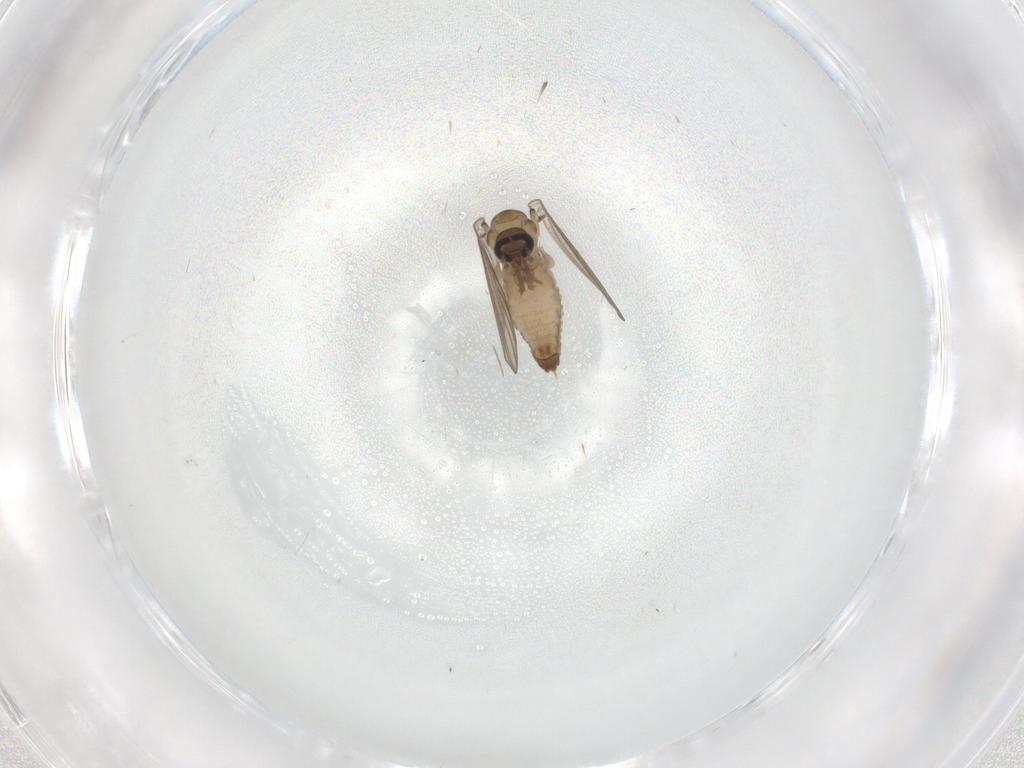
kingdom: Animalia
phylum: Arthropoda
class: Insecta
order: Diptera
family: Psychodidae
